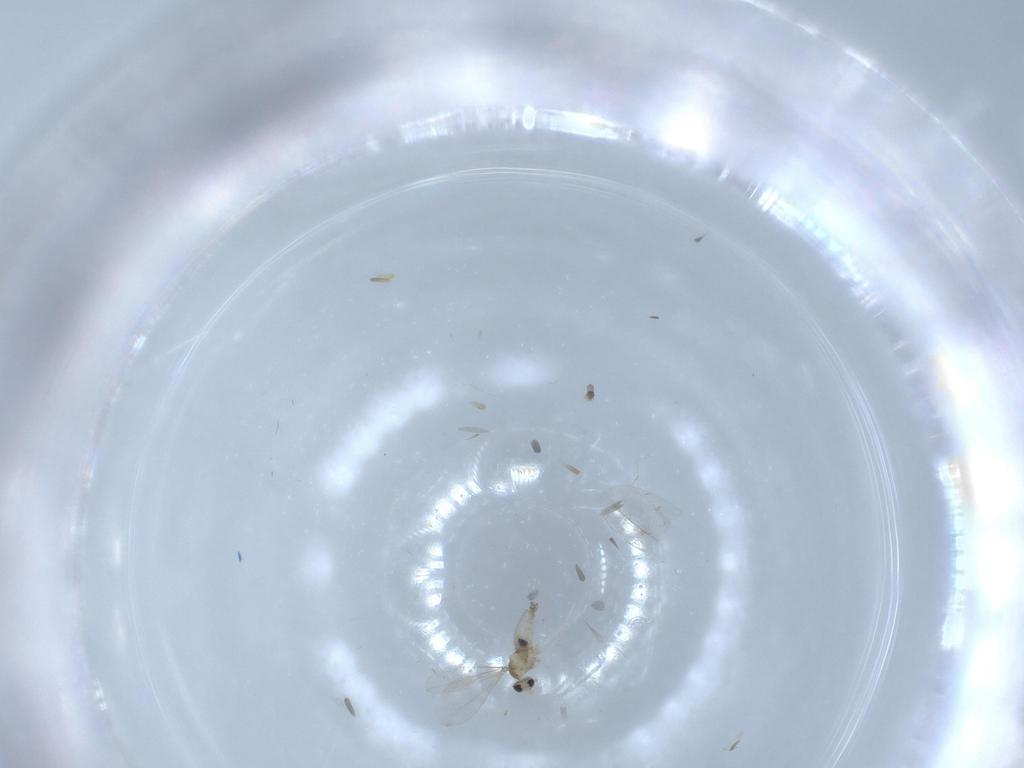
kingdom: Animalia
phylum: Arthropoda
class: Insecta
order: Diptera
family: Cecidomyiidae
